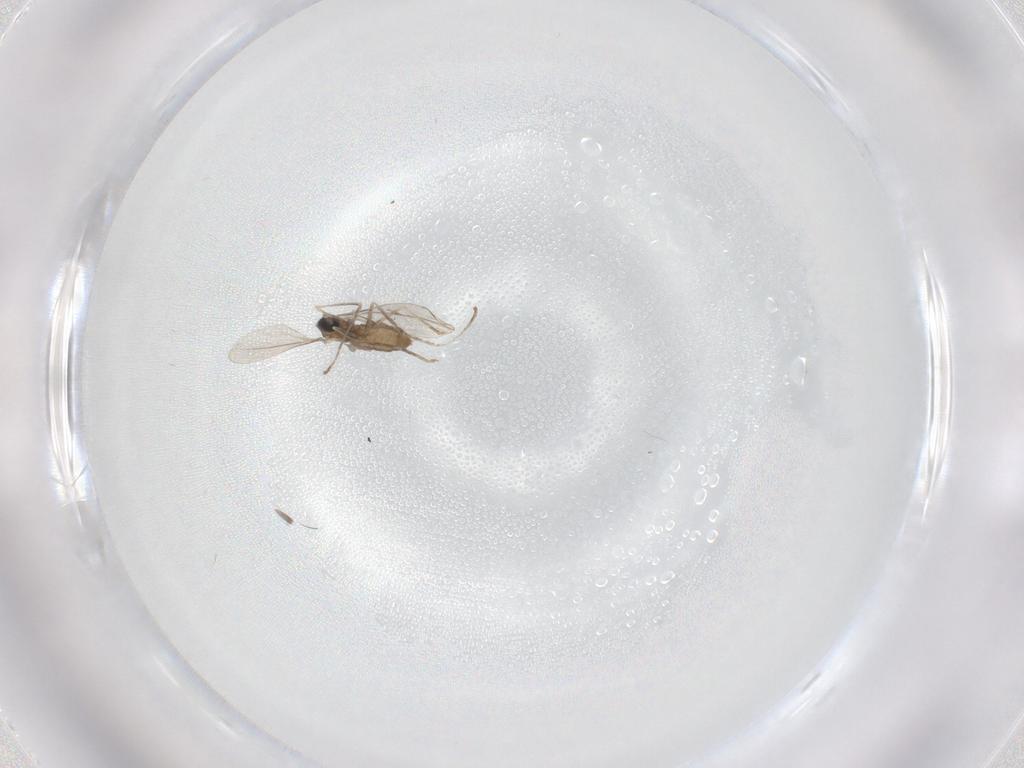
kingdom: Animalia
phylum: Arthropoda
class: Insecta
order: Diptera
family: Cecidomyiidae
